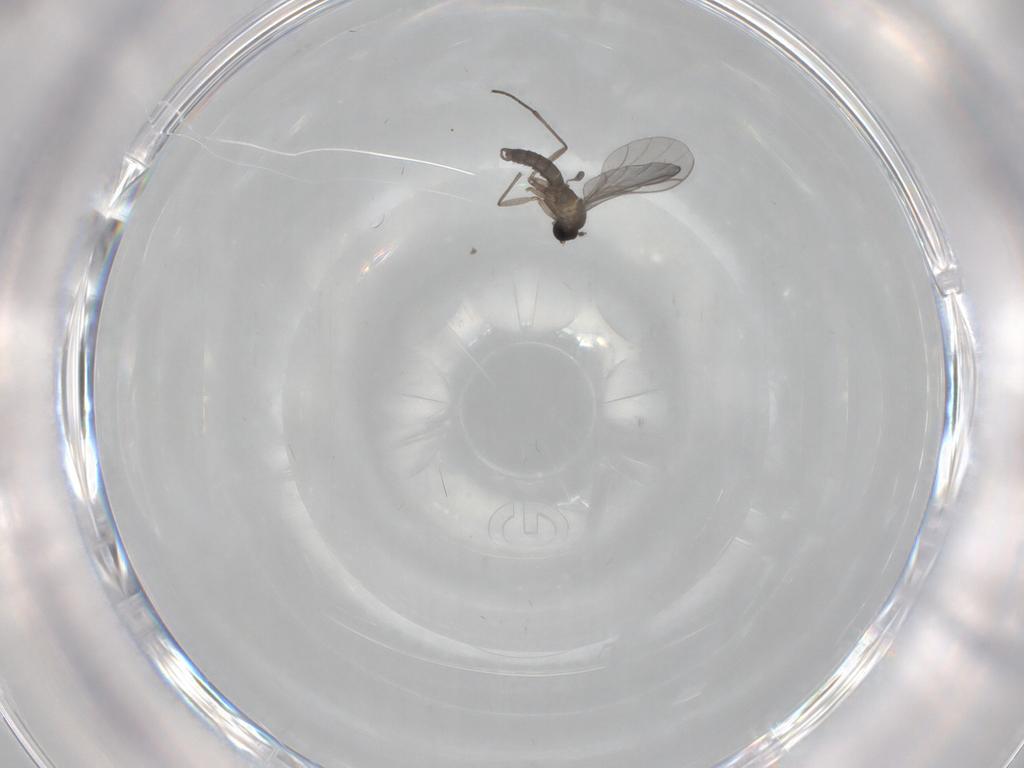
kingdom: Animalia
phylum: Arthropoda
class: Insecta
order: Diptera
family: Sciaridae
